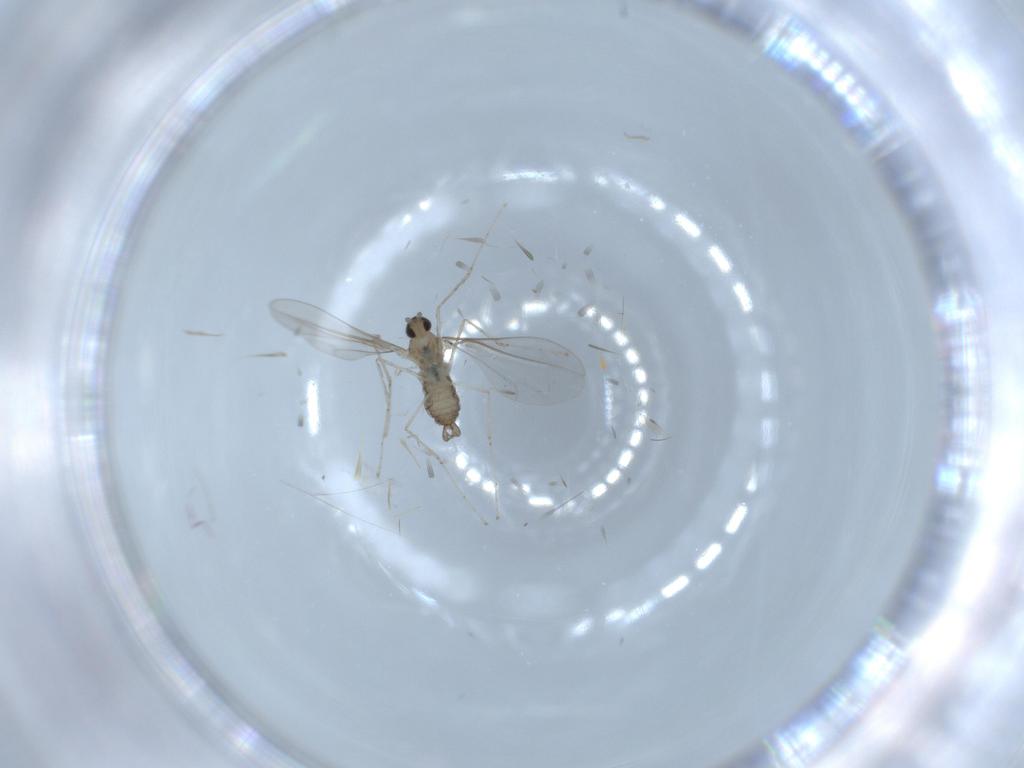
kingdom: Animalia
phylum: Arthropoda
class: Insecta
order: Diptera
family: Cecidomyiidae
